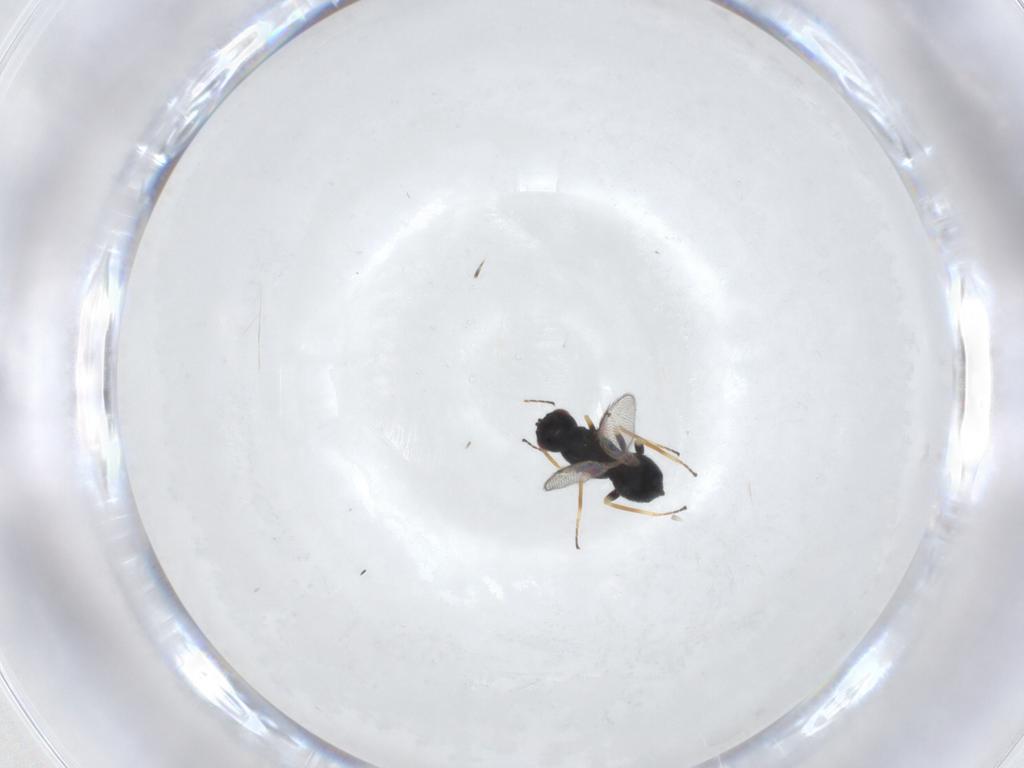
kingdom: Animalia
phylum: Arthropoda
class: Insecta
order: Hymenoptera
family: Eulophidae
